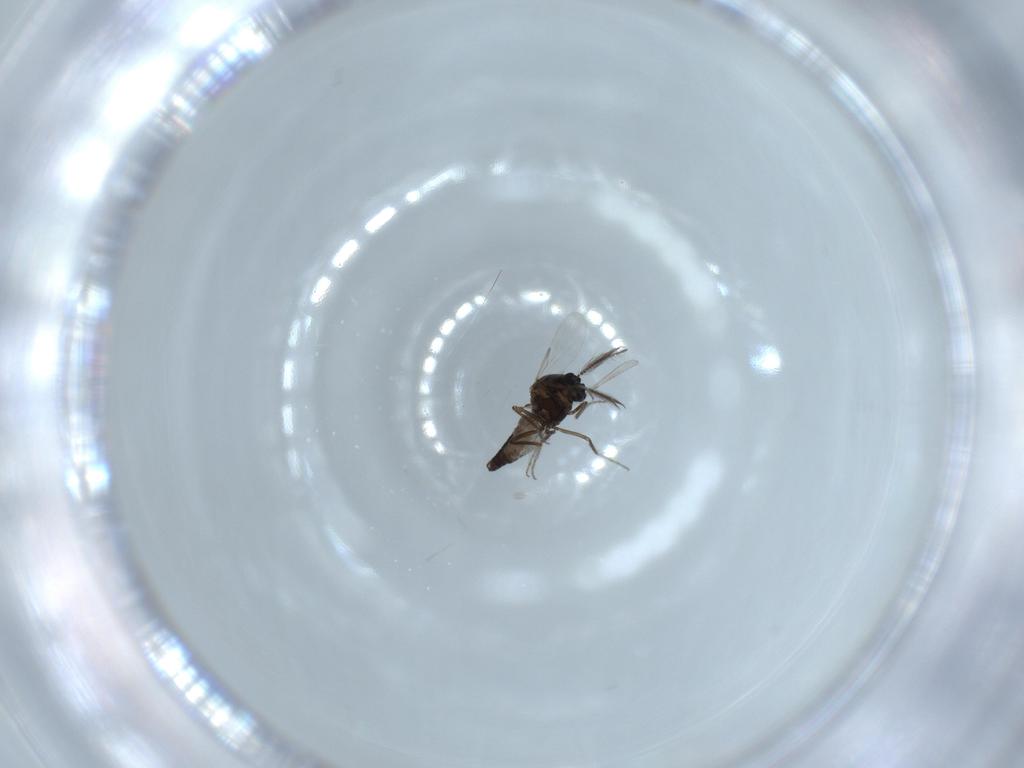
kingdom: Animalia
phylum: Arthropoda
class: Insecta
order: Diptera
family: Ceratopogonidae
